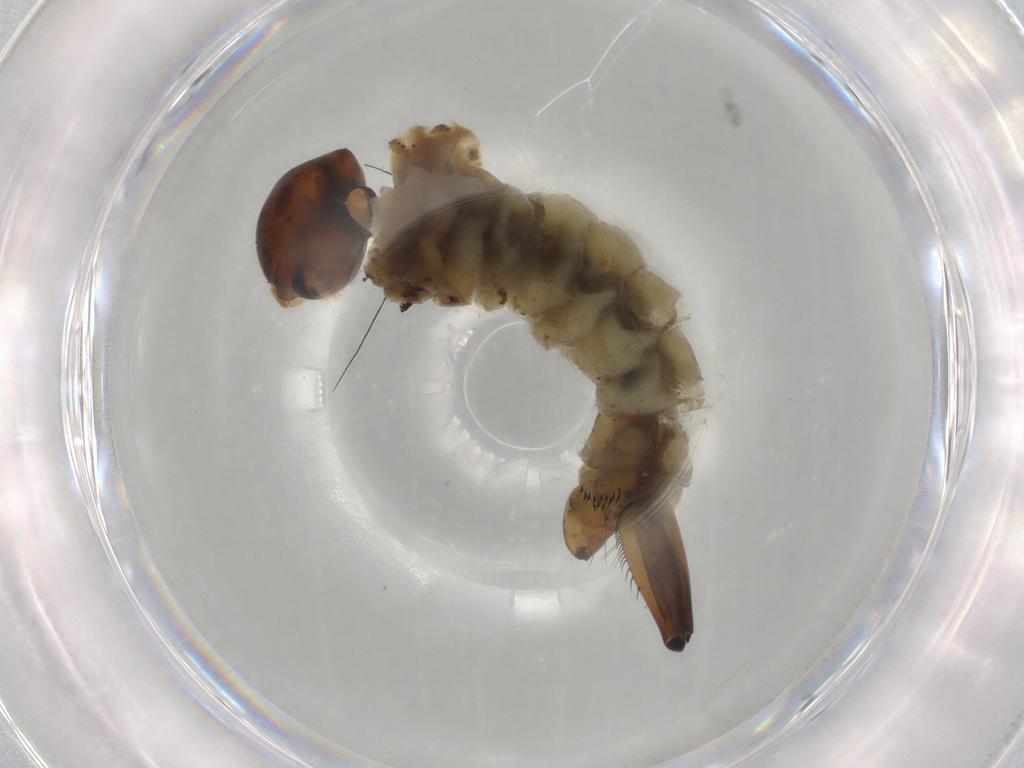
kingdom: Animalia
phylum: Arthropoda
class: Insecta
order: Diptera
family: Culicidae
